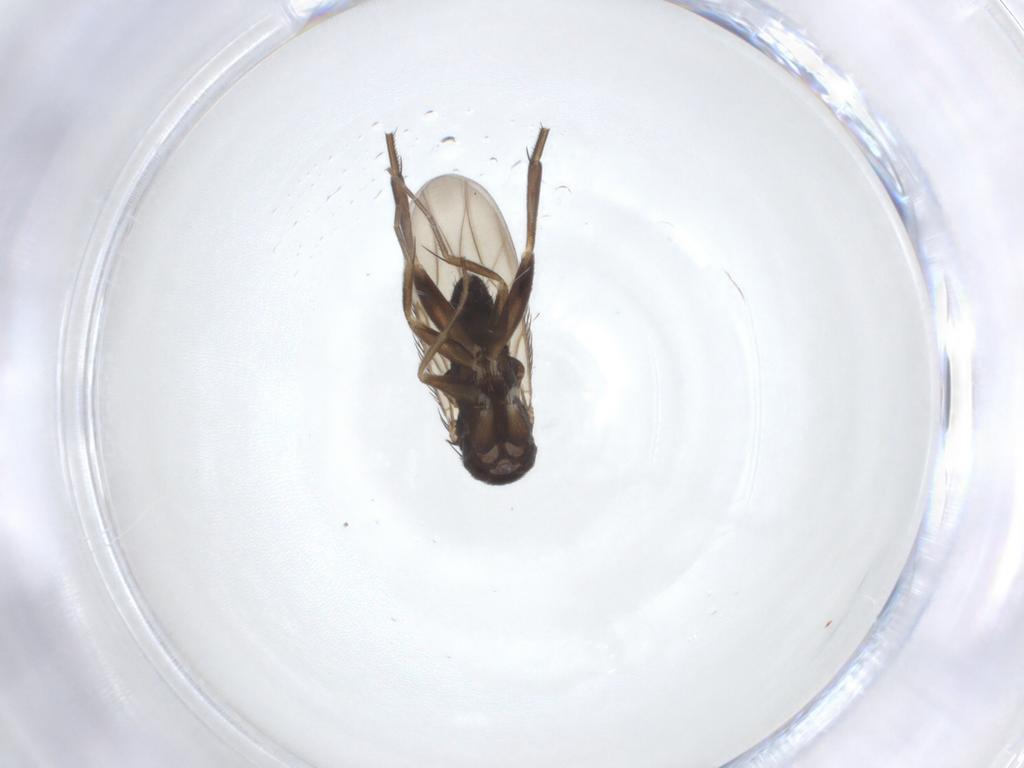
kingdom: Animalia
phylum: Arthropoda
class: Insecta
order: Diptera
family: Phoridae
